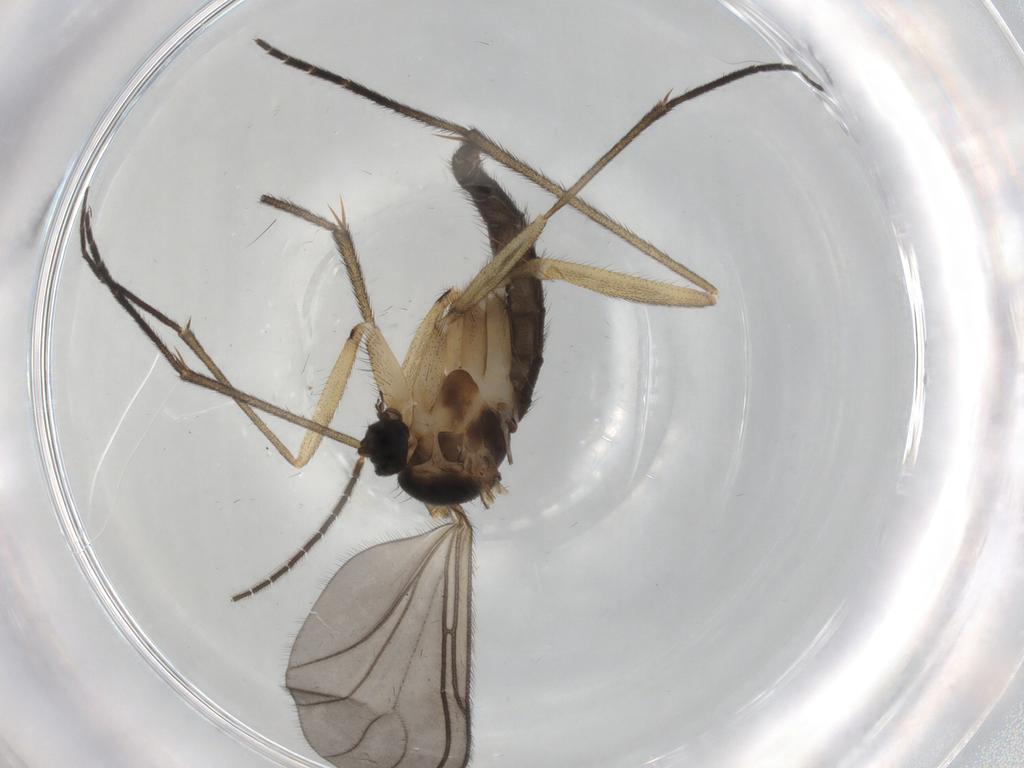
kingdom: Animalia
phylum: Arthropoda
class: Insecta
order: Diptera
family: Sciaridae
